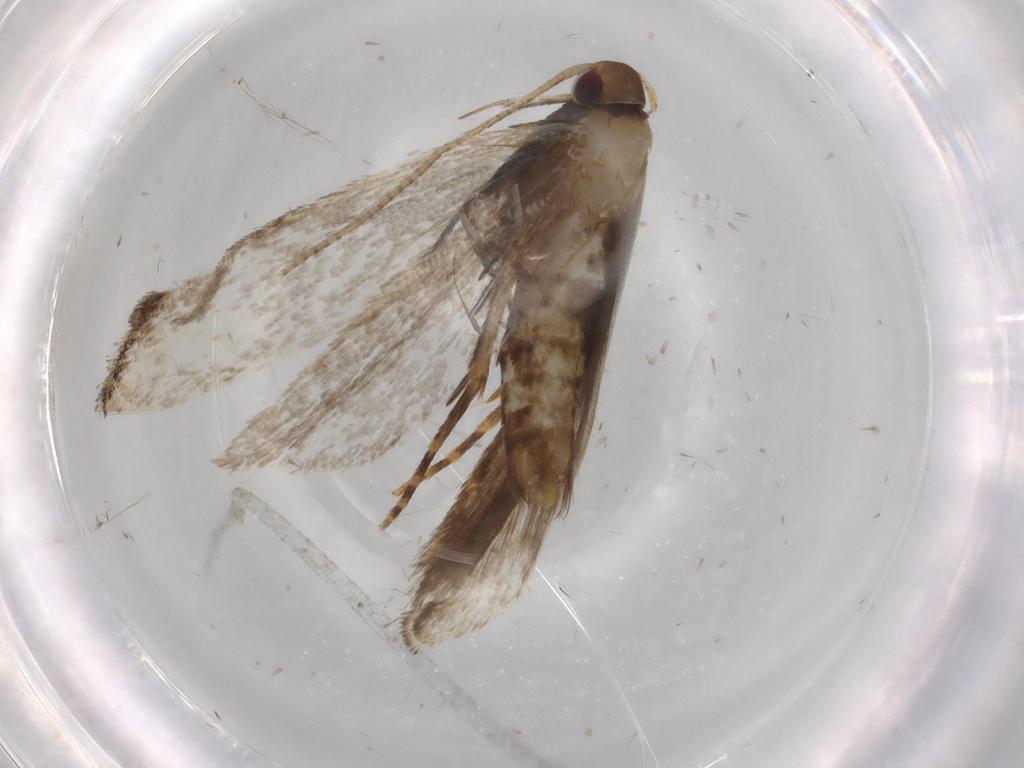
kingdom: Animalia
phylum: Arthropoda
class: Insecta
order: Lepidoptera
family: Gelechiidae
